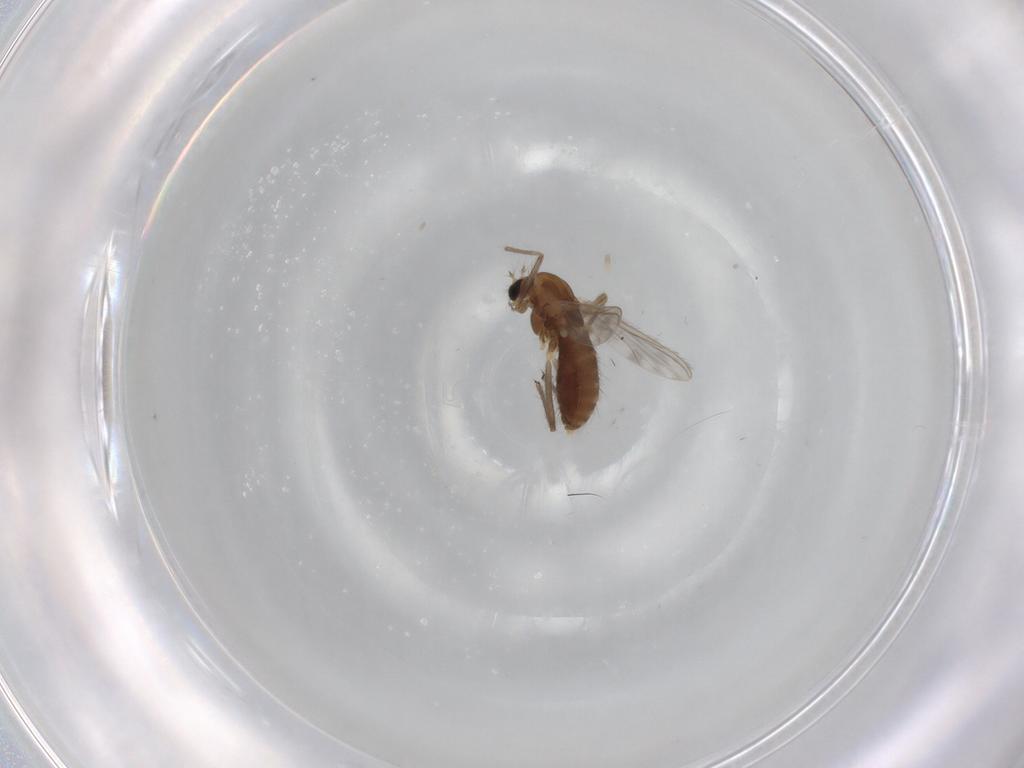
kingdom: Animalia
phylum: Arthropoda
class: Insecta
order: Diptera
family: Chironomidae
